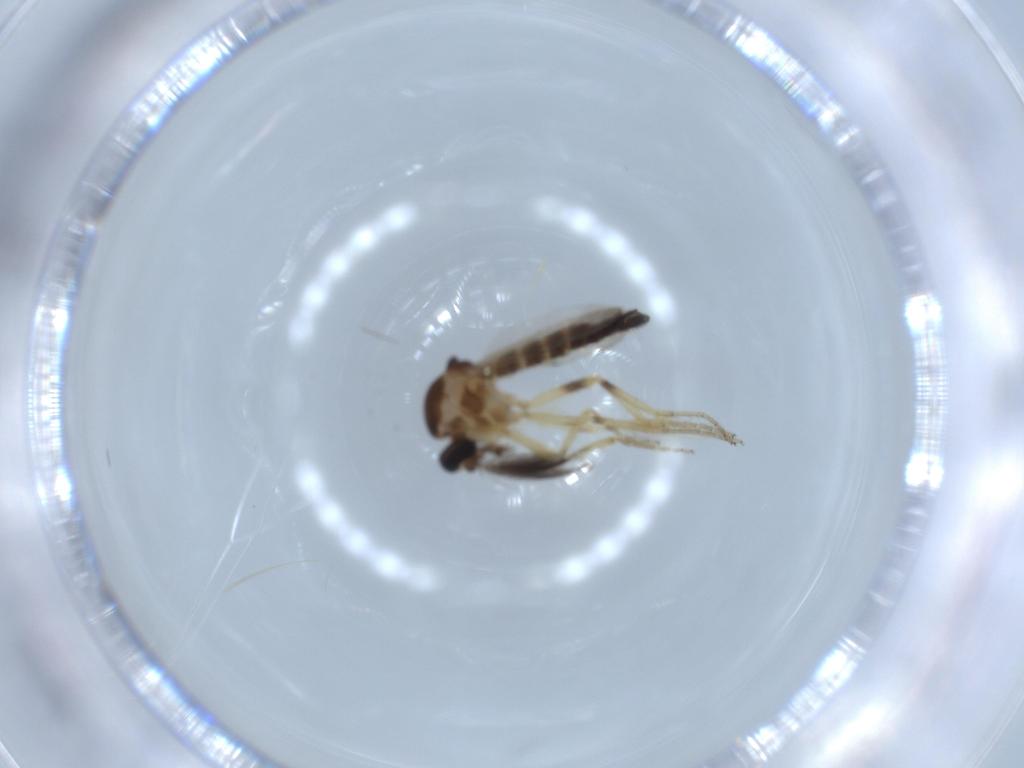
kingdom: Animalia
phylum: Arthropoda
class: Insecta
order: Diptera
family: Ceratopogonidae
